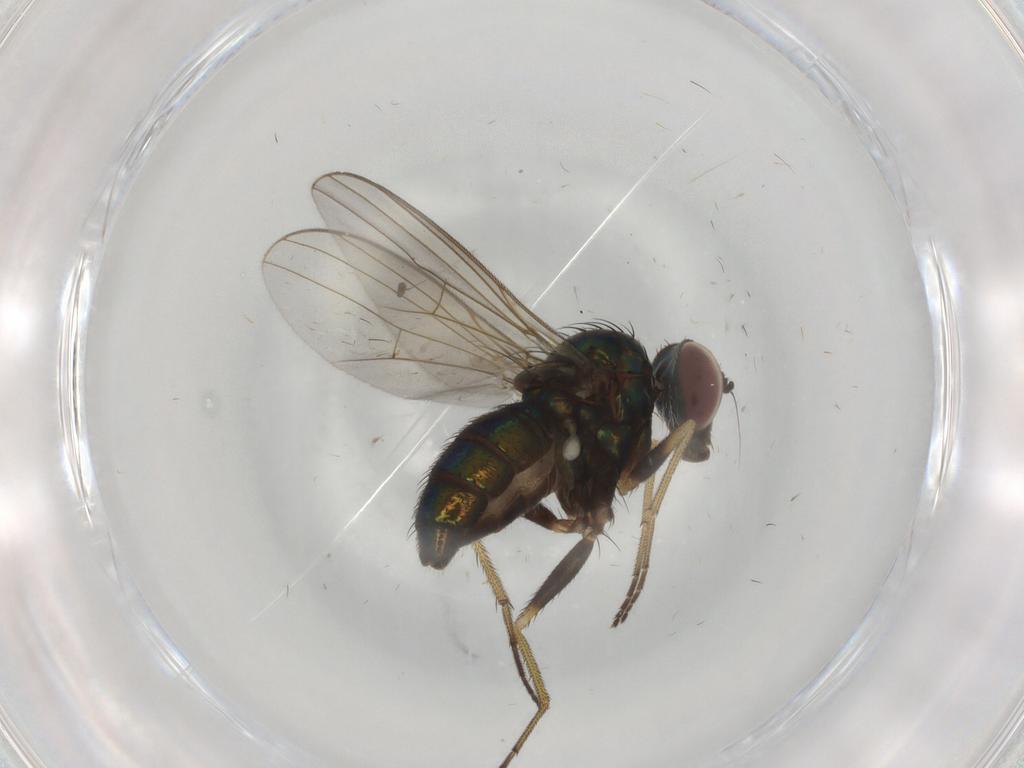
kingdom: Animalia
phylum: Arthropoda
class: Insecta
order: Diptera
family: Dolichopodidae
